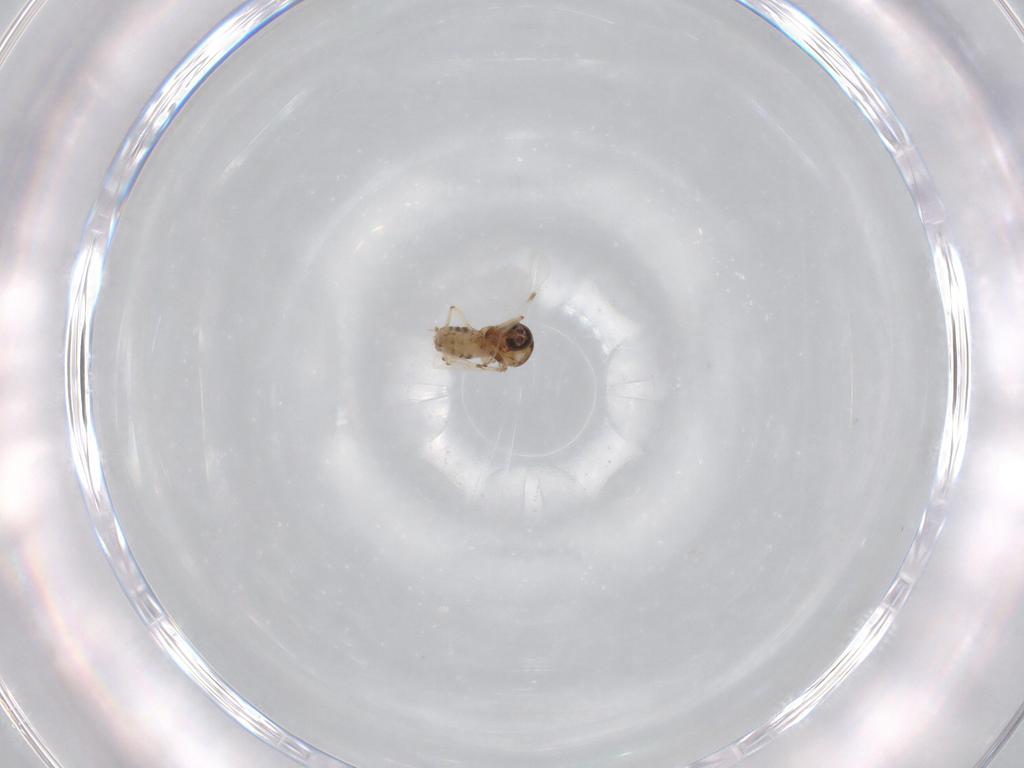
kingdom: Animalia
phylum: Arthropoda
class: Insecta
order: Diptera
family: Ceratopogonidae
